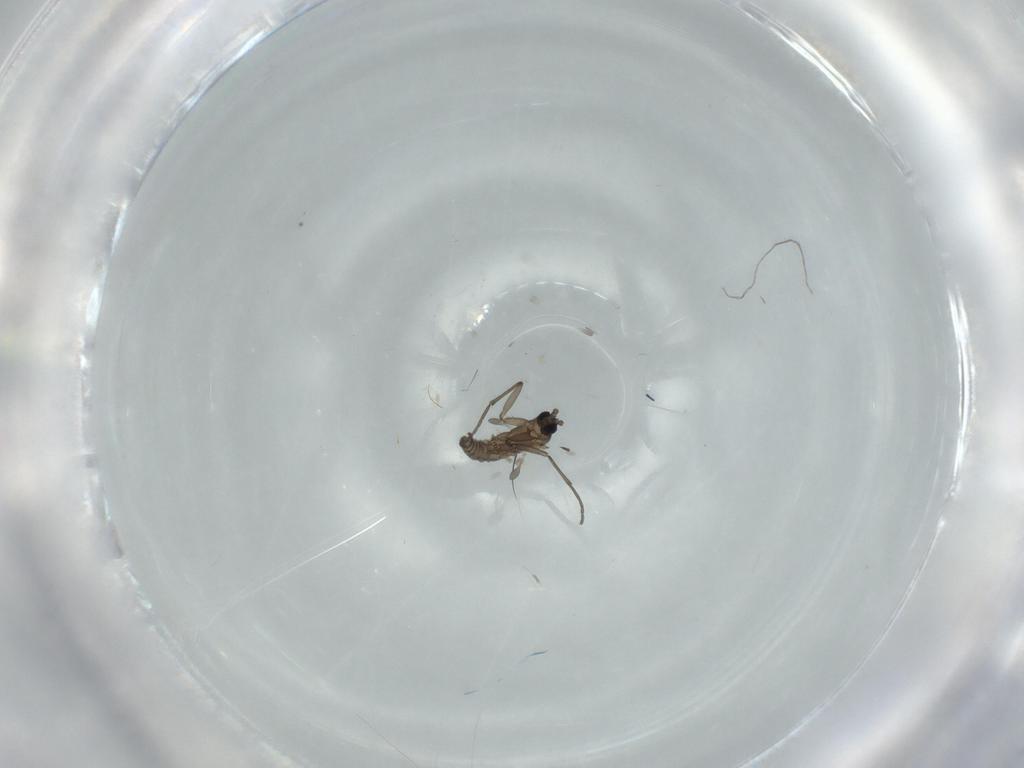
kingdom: Animalia
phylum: Arthropoda
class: Insecta
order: Diptera
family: Sciaridae
